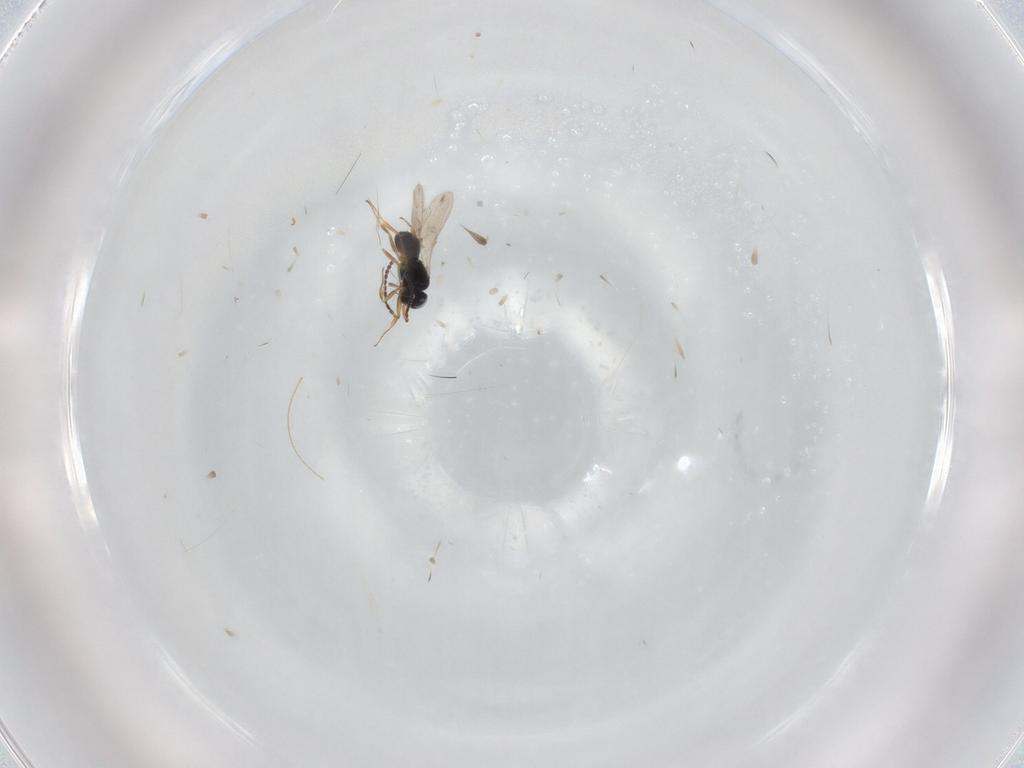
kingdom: Animalia
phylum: Arthropoda
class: Insecta
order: Hymenoptera
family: Scelionidae
